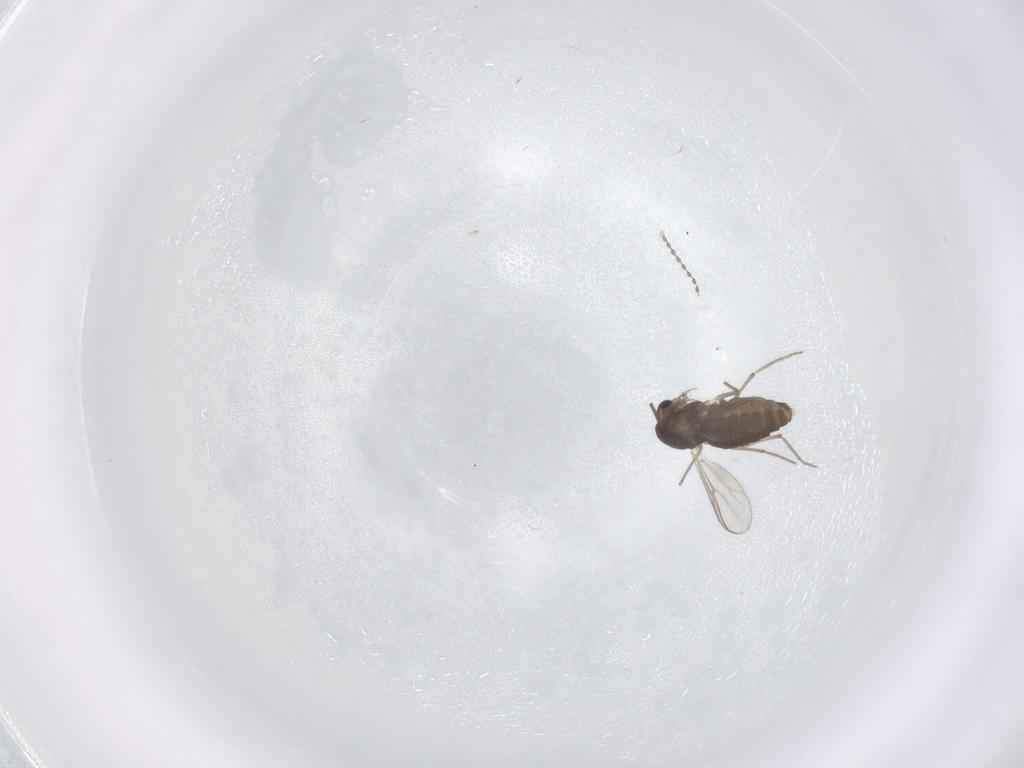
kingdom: Animalia
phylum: Arthropoda
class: Insecta
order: Diptera
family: Chironomidae
